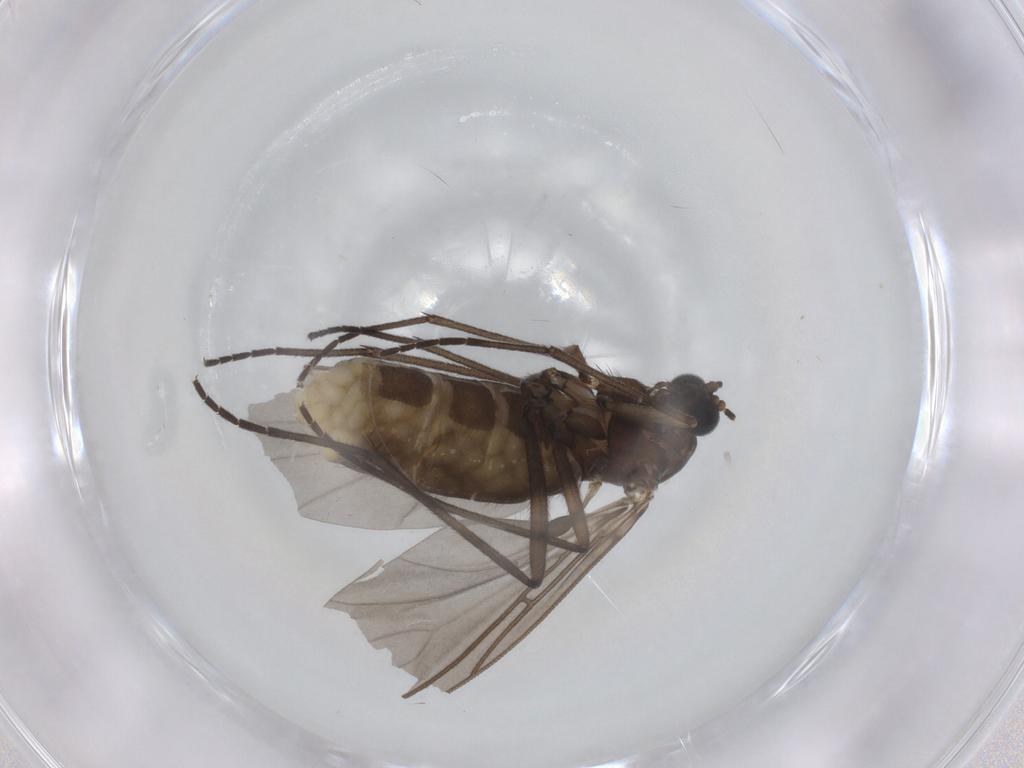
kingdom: Animalia
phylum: Arthropoda
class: Insecta
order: Diptera
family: Sciaridae
